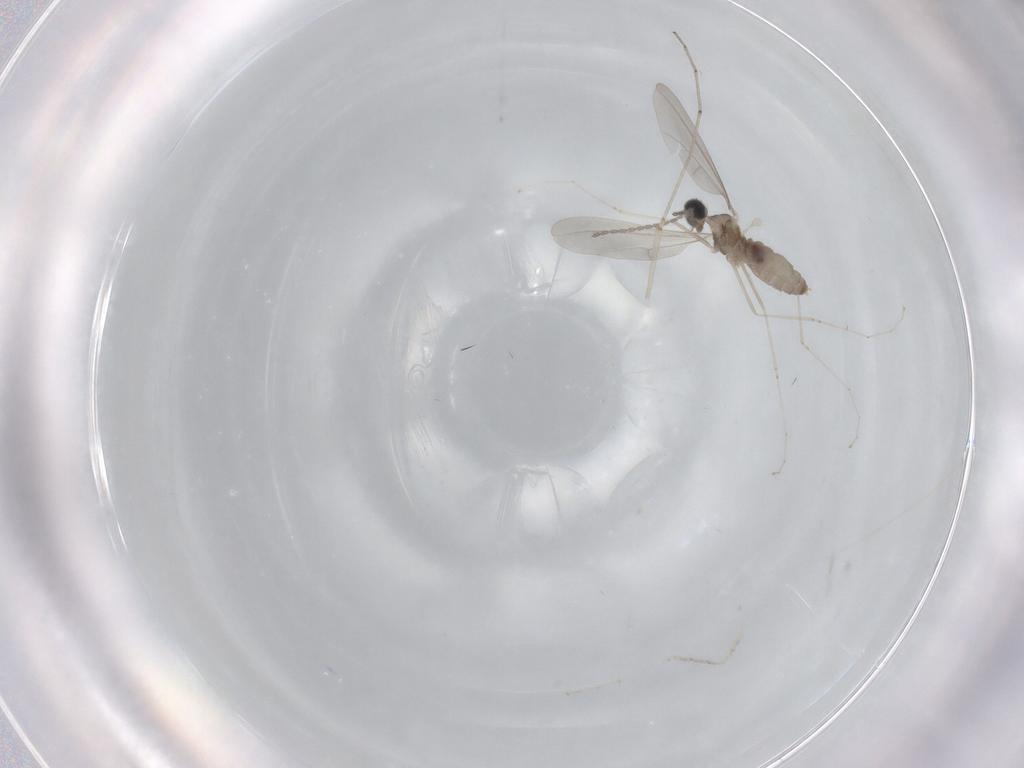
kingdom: Animalia
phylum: Arthropoda
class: Insecta
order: Diptera
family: Cecidomyiidae
